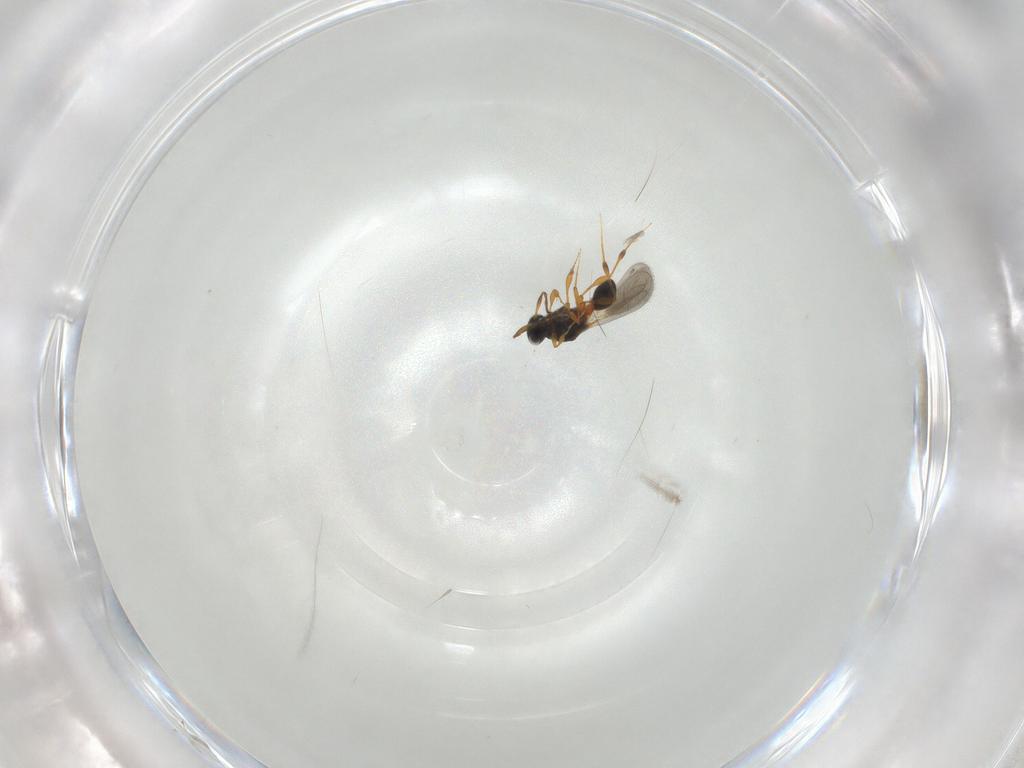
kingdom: Animalia
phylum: Arthropoda
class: Insecta
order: Hymenoptera
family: Platygastridae
